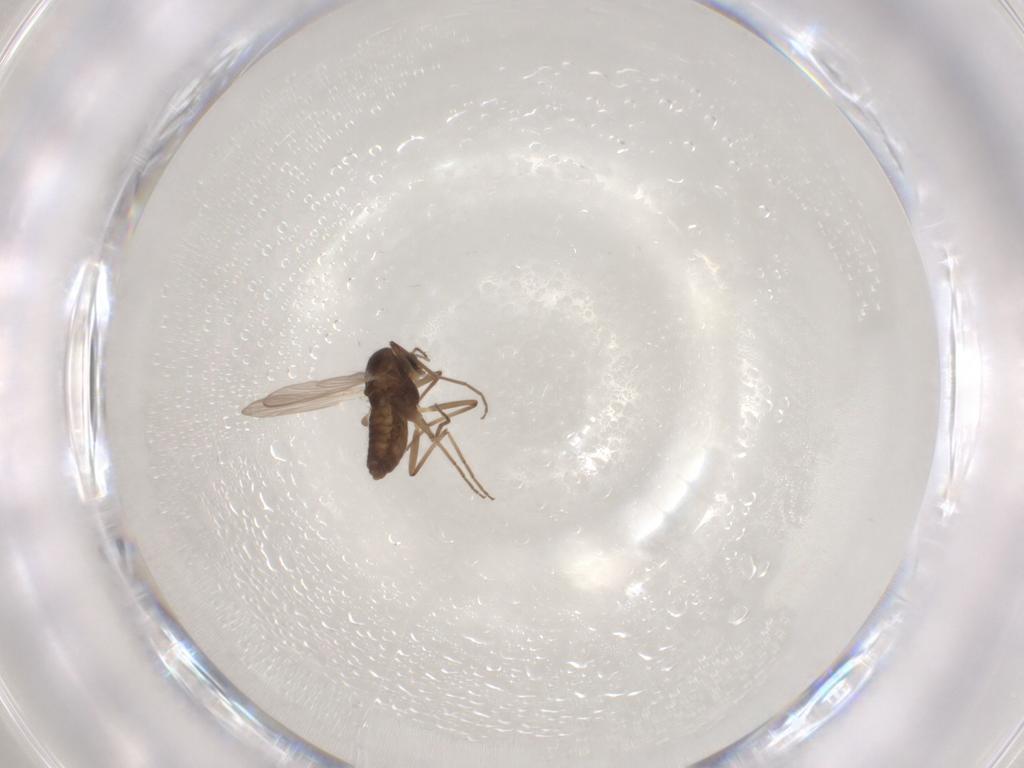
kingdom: Animalia
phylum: Arthropoda
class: Insecta
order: Diptera
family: Chironomidae
